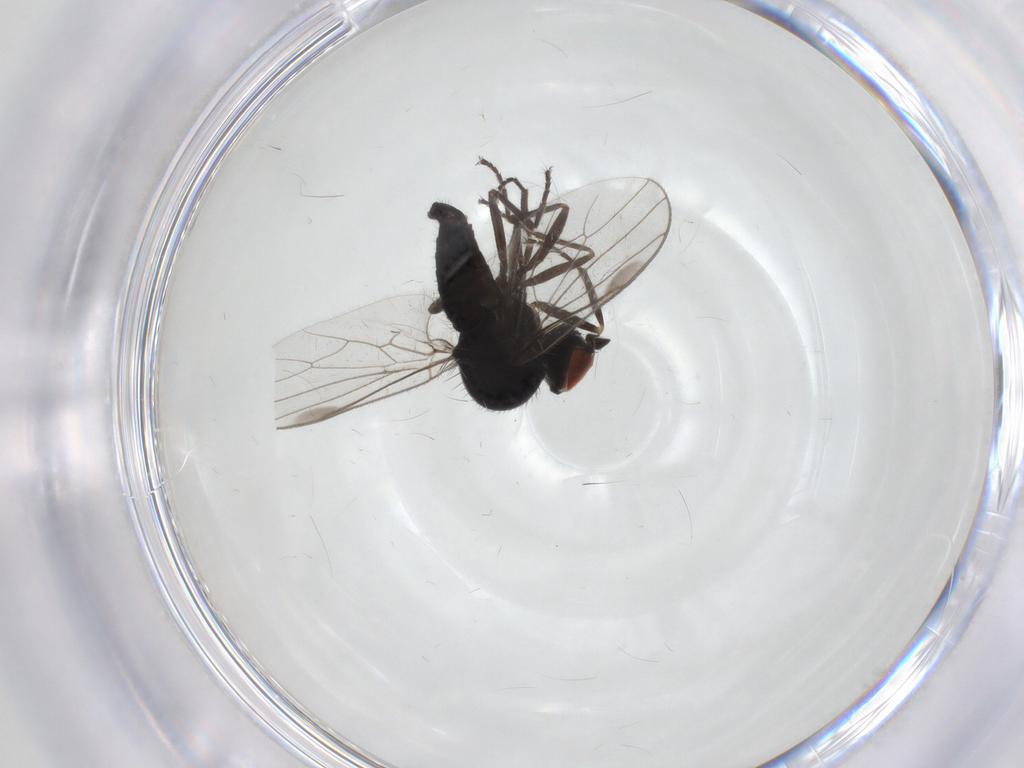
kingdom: Animalia
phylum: Arthropoda
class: Insecta
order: Diptera
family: Hybotidae
